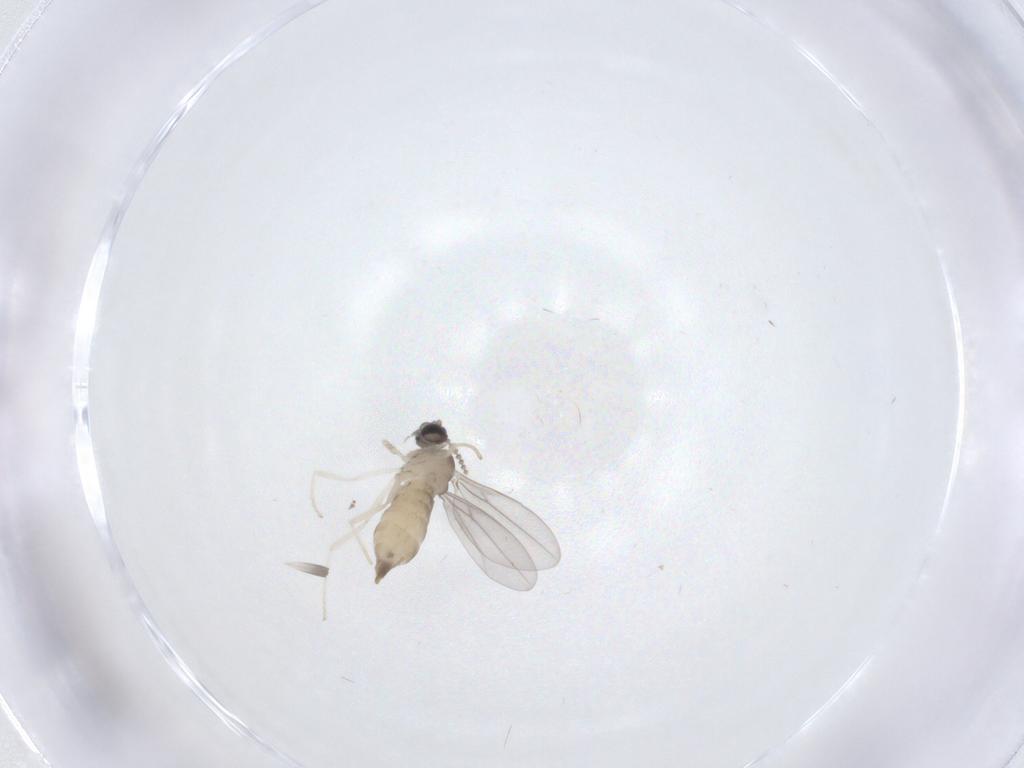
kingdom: Animalia
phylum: Arthropoda
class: Insecta
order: Diptera
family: Cecidomyiidae
